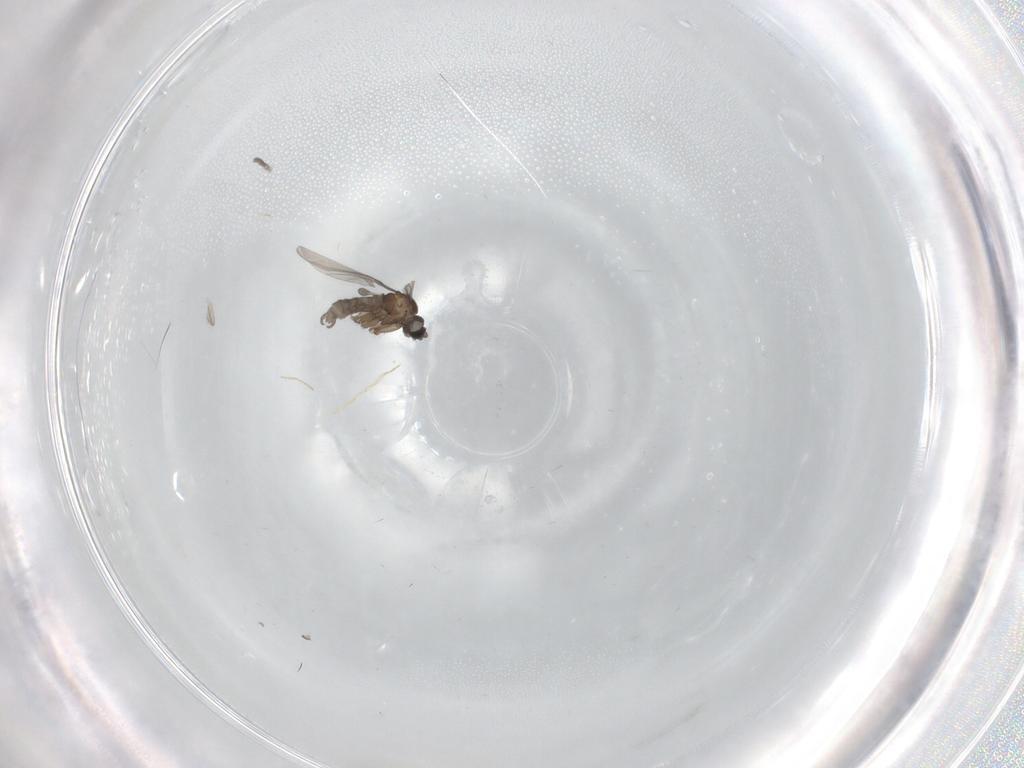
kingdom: Animalia
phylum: Arthropoda
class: Insecta
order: Diptera
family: Sciaridae
